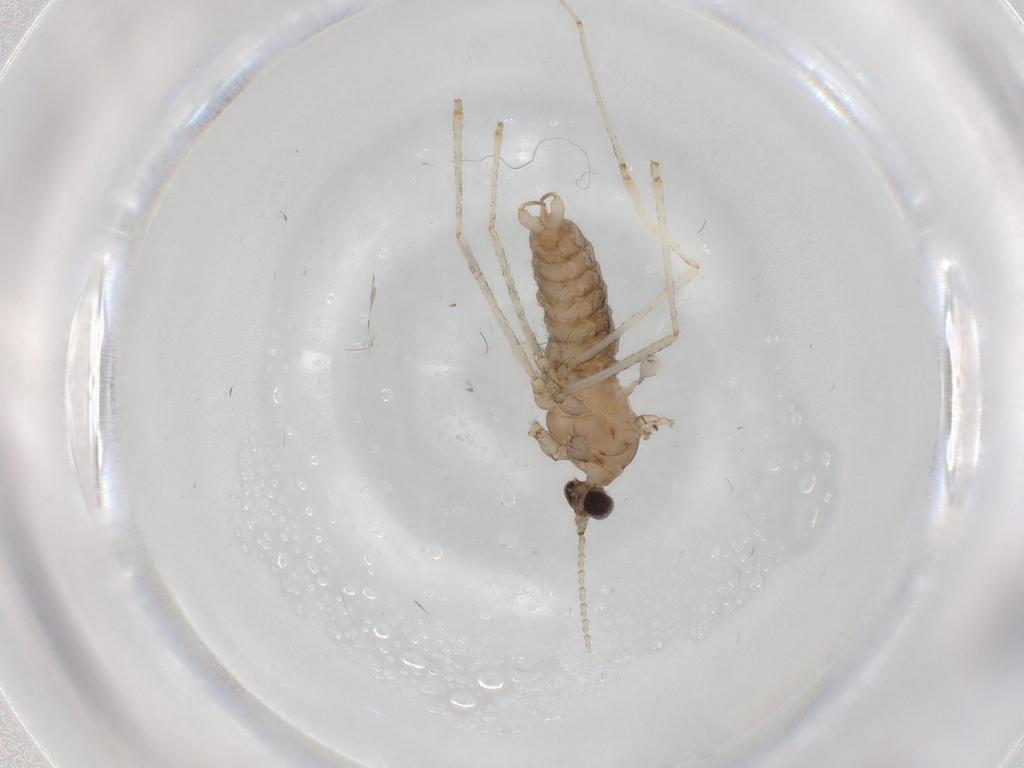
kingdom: Animalia
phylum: Arthropoda
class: Insecta
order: Diptera
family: Cecidomyiidae
